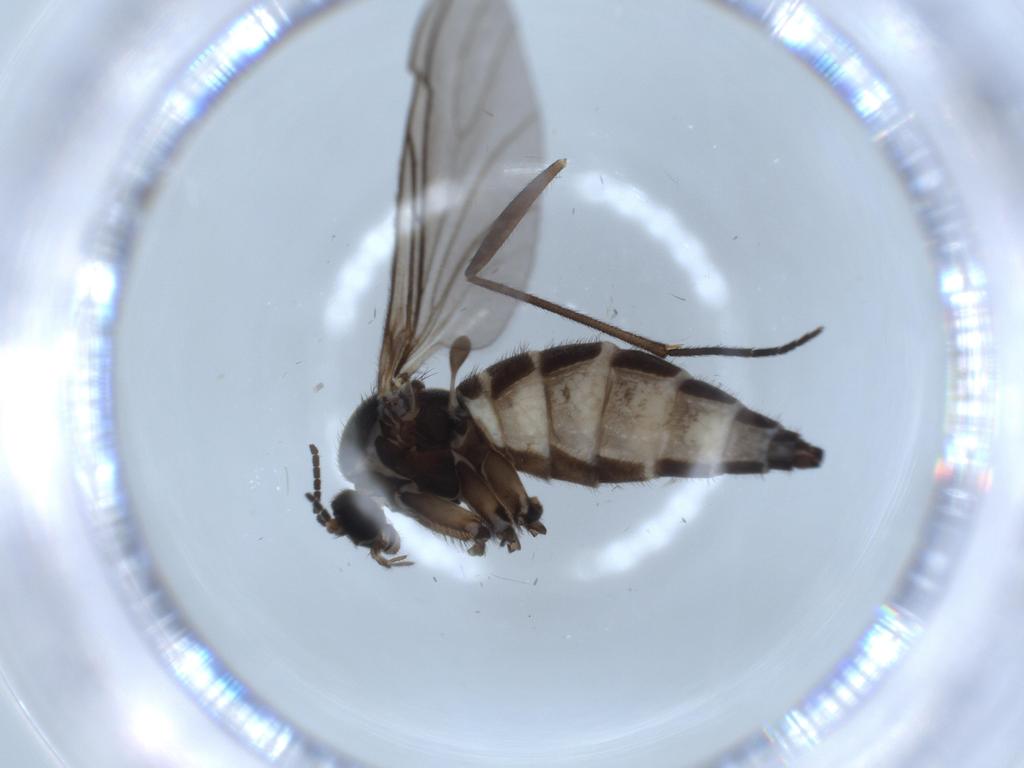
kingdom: Animalia
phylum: Arthropoda
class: Insecta
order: Diptera
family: Sciaridae
